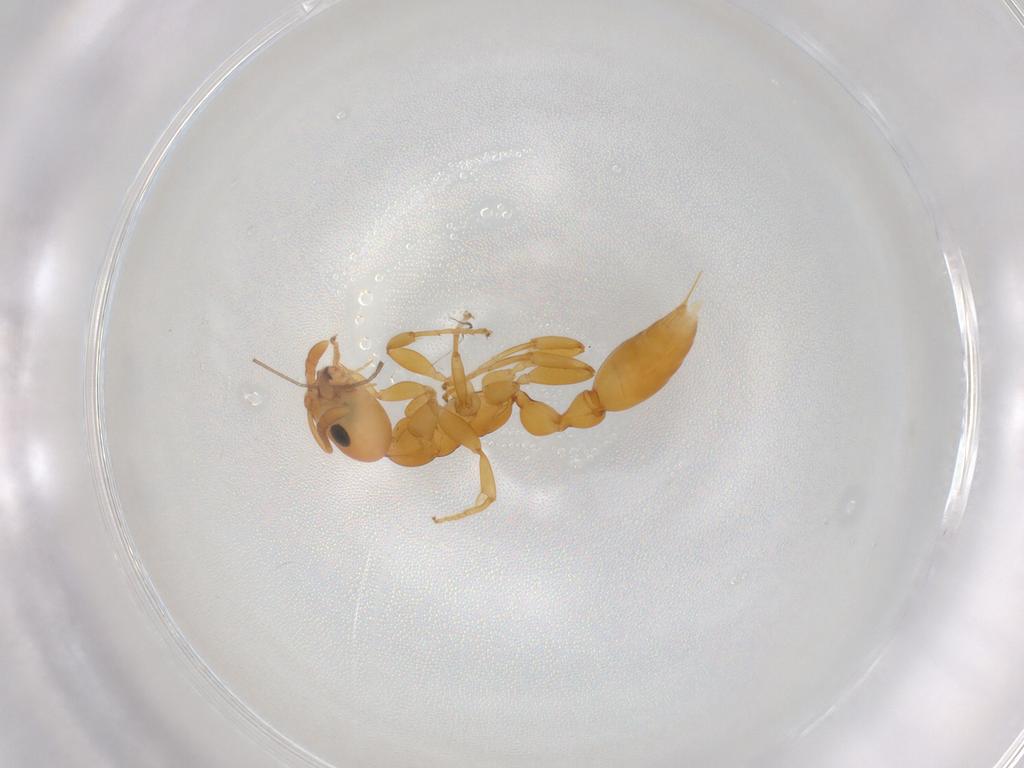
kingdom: Animalia
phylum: Arthropoda
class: Insecta
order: Hymenoptera
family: Formicidae
